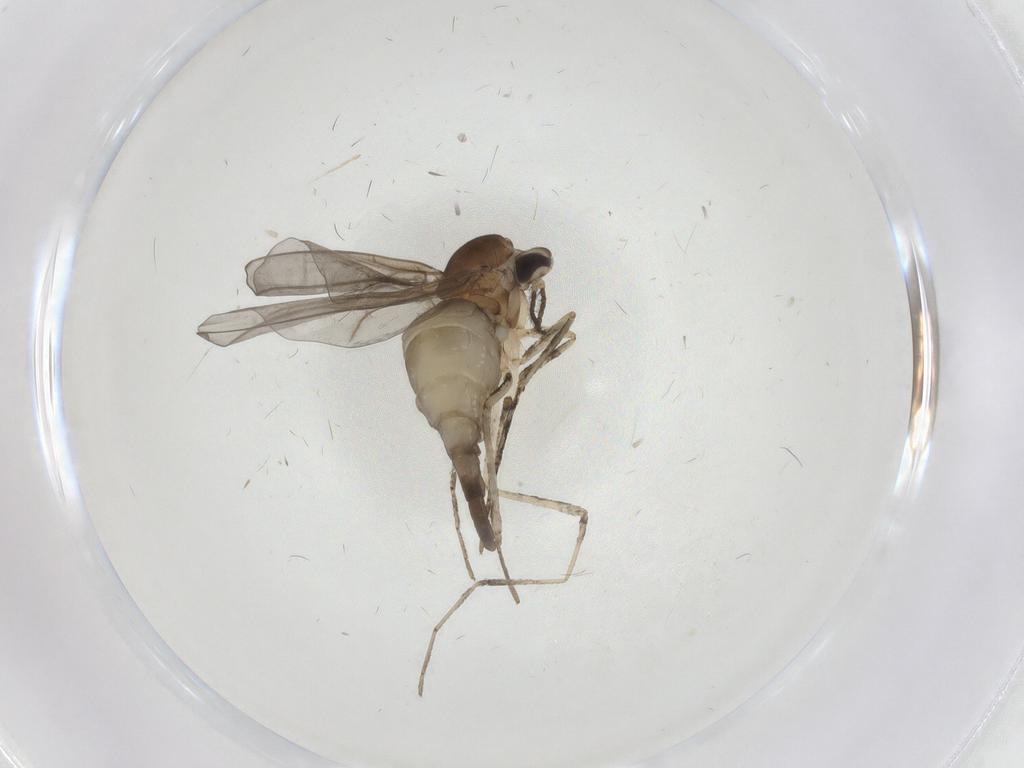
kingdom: Animalia
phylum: Arthropoda
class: Insecta
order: Diptera
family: Cecidomyiidae
